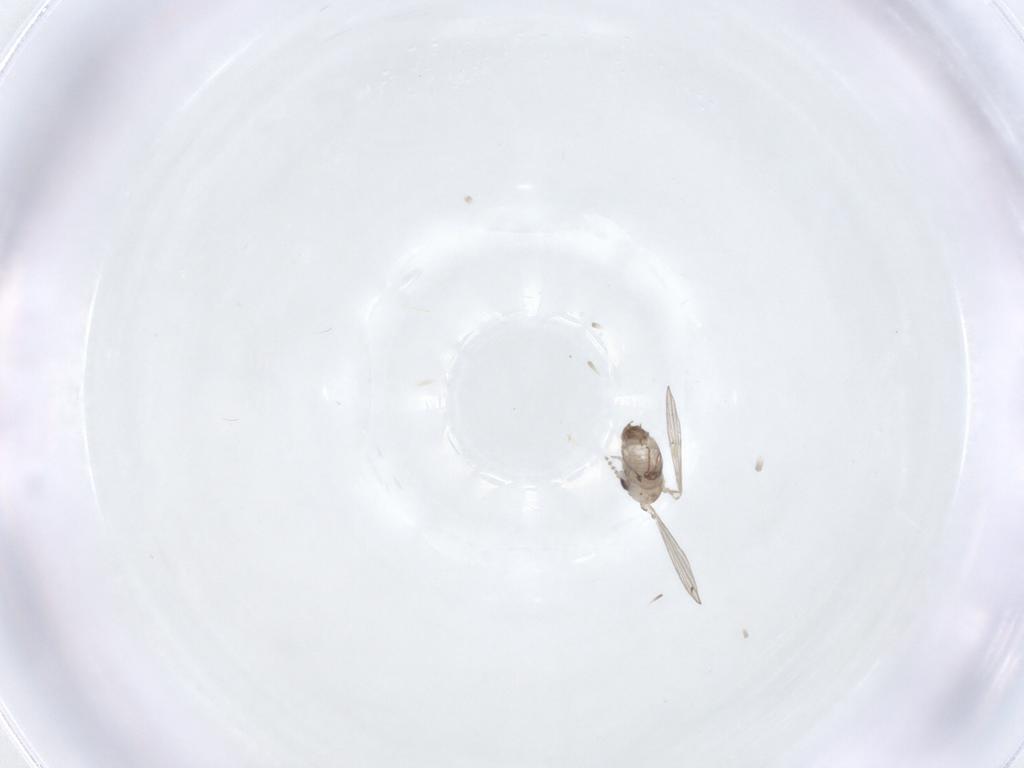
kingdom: Animalia
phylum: Arthropoda
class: Insecta
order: Diptera
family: Psychodidae
